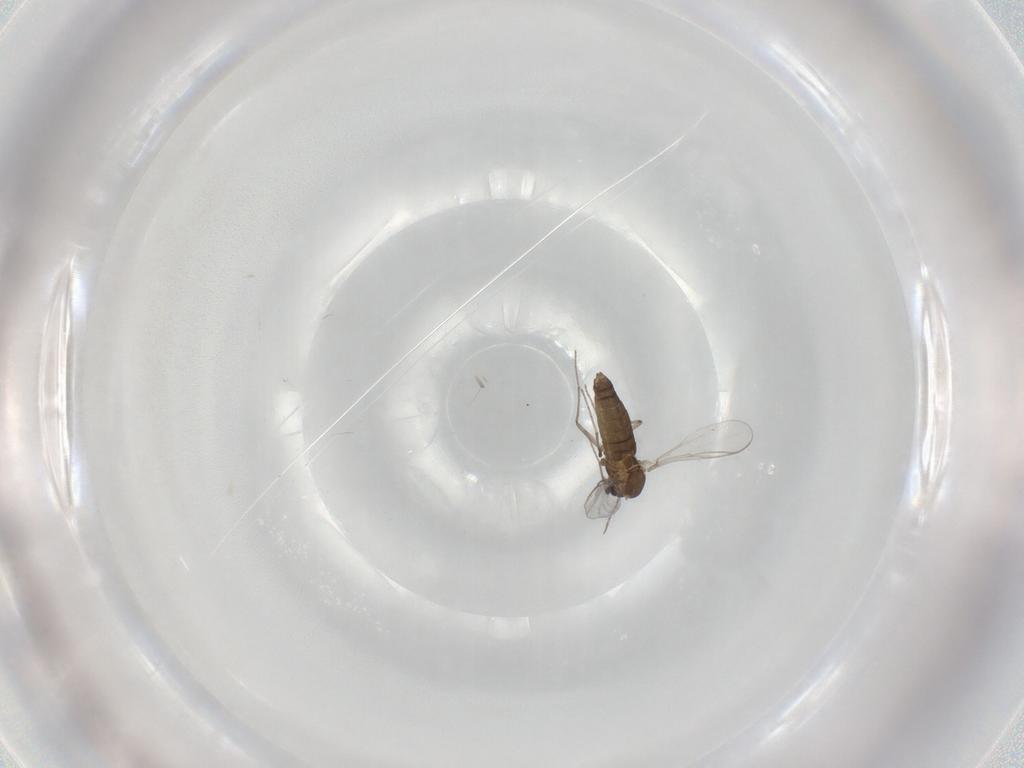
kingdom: Animalia
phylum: Arthropoda
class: Insecta
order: Diptera
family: Chironomidae
